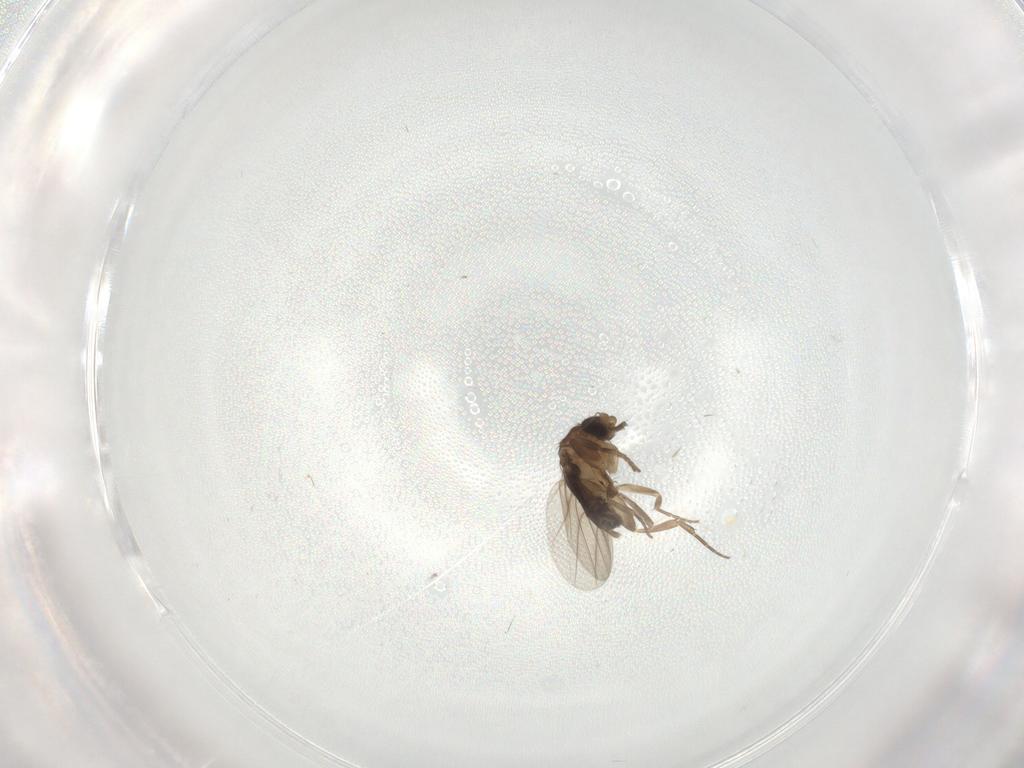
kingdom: Animalia
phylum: Arthropoda
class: Insecta
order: Diptera
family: Phoridae
